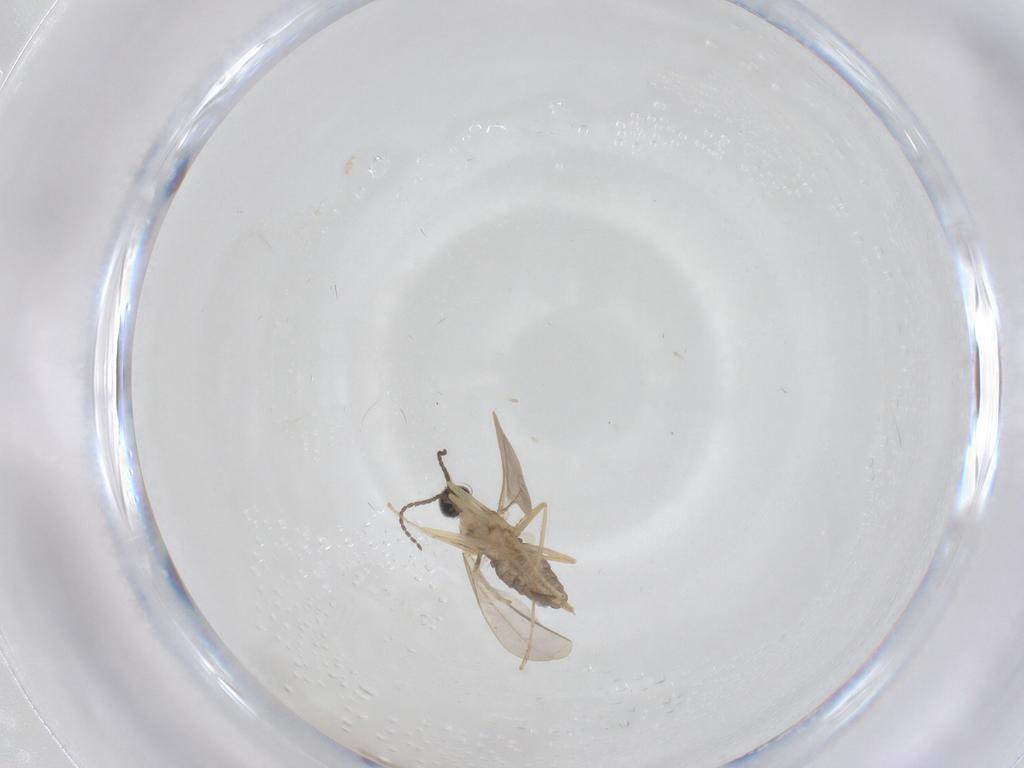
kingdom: Animalia
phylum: Arthropoda
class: Insecta
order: Diptera
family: Cecidomyiidae
